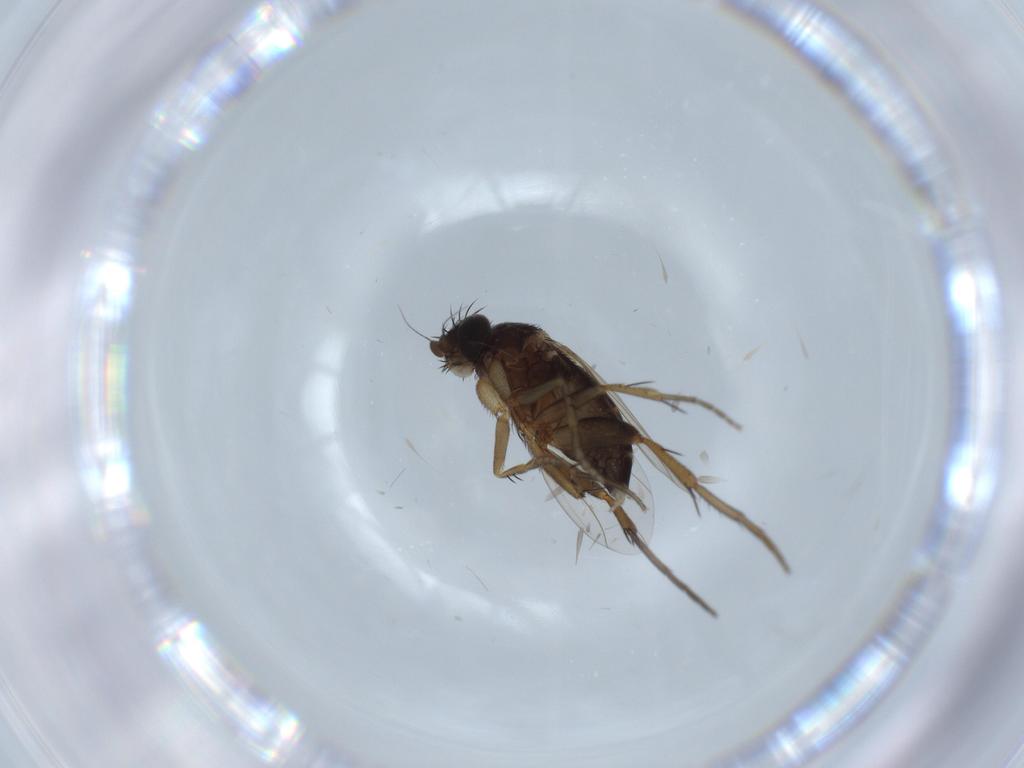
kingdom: Animalia
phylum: Arthropoda
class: Insecta
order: Diptera
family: Phoridae
